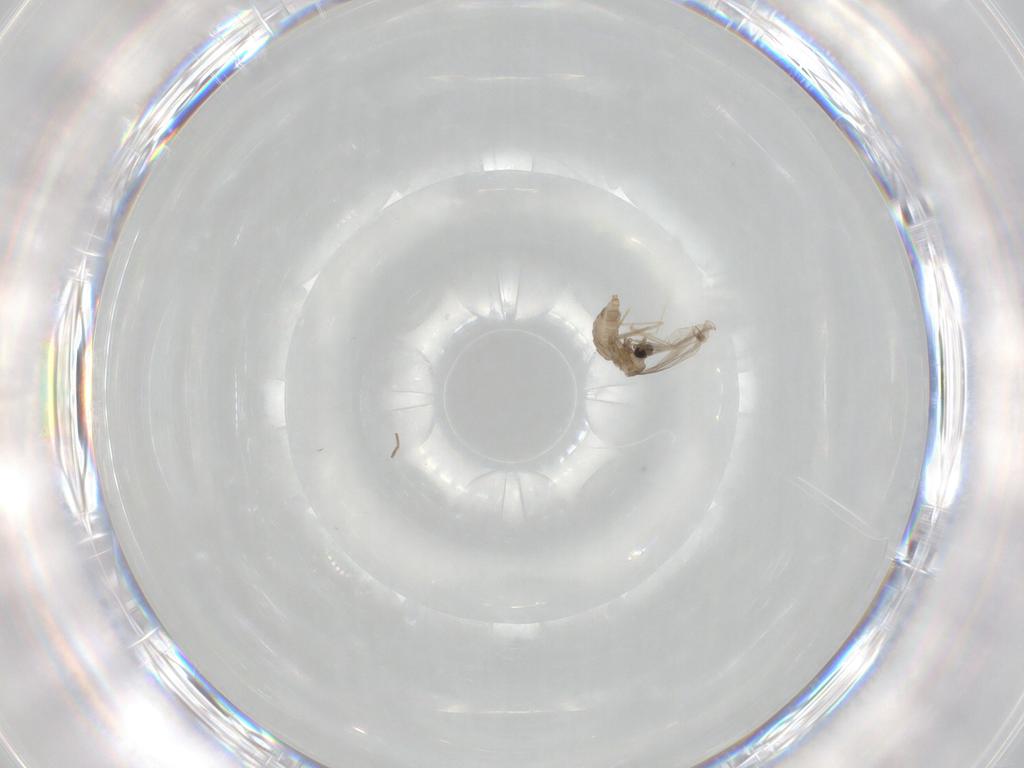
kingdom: Animalia
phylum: Arthropoda
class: Insecta
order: Diptera
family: Cecidomyiidae
